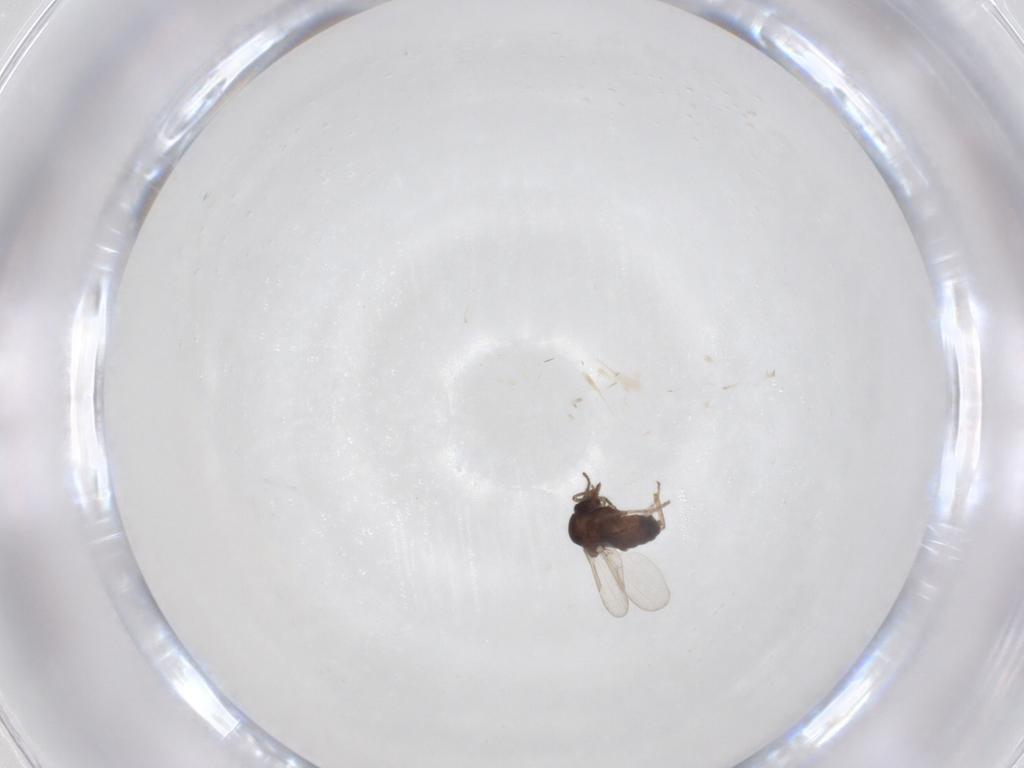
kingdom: Animalia
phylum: Arthropoda
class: Insecta
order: Diptera
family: Ceratopogonidae
